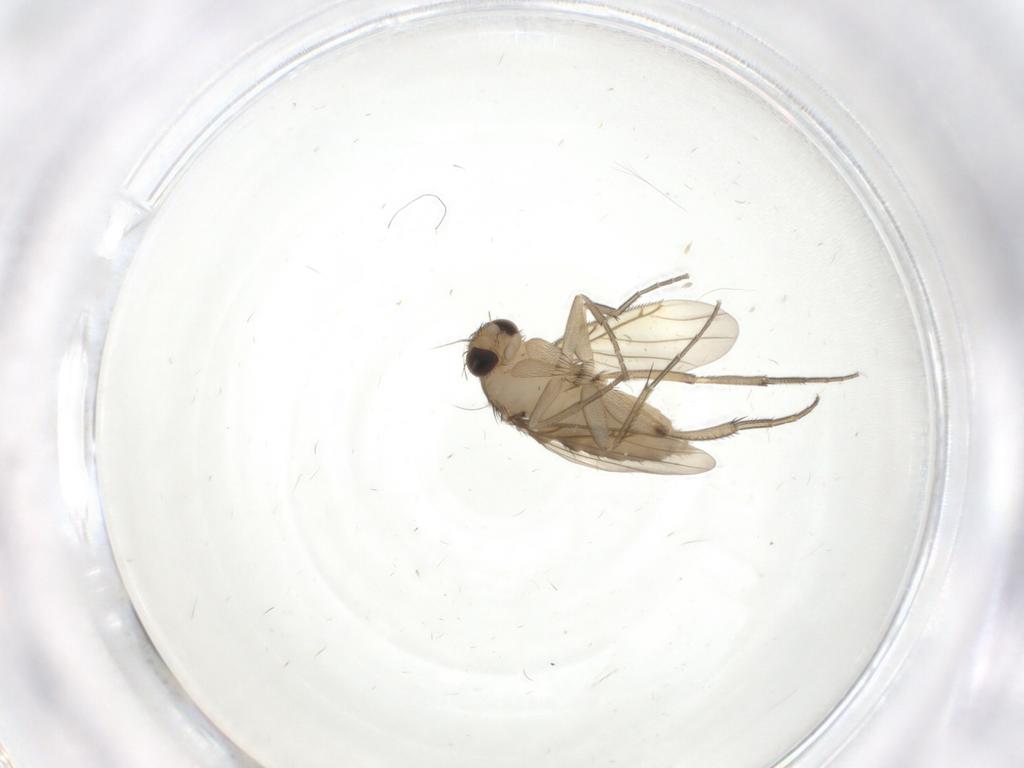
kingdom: Animalia
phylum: Arthropoda
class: Insecta
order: Diptera
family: Phoridae
